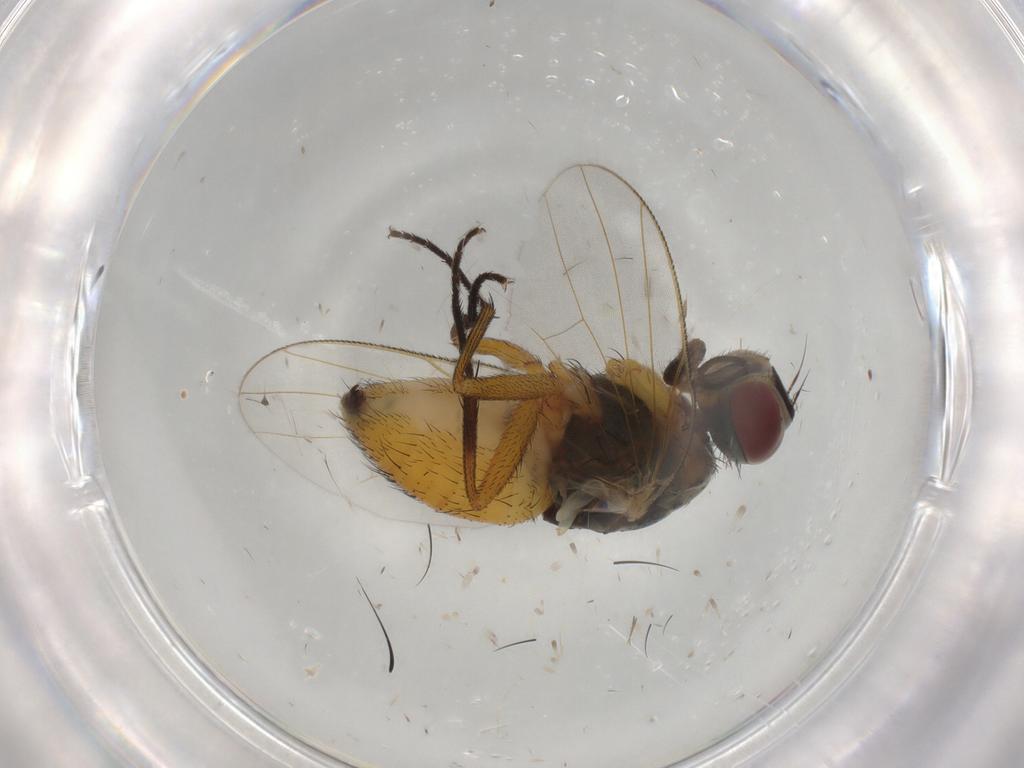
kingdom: Animalia
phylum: Arthropoda
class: Insecta
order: Diptera
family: Muscidae
